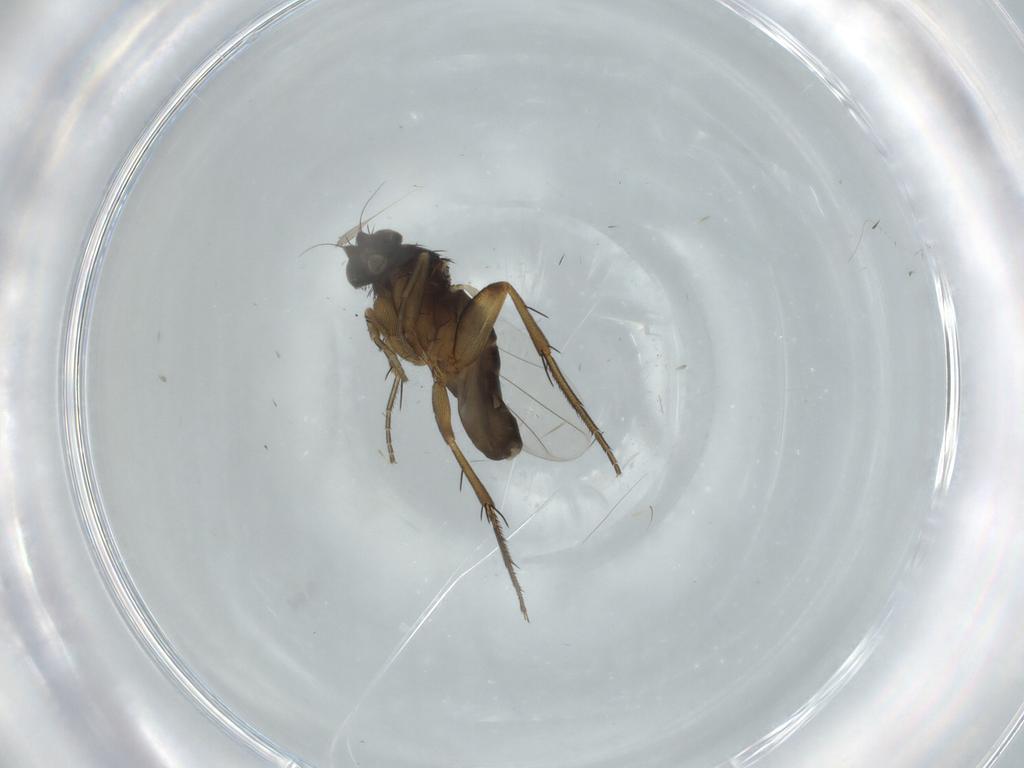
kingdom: Animalia
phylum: Arthropoda
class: Insecta
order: Diptera
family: Phoridae
